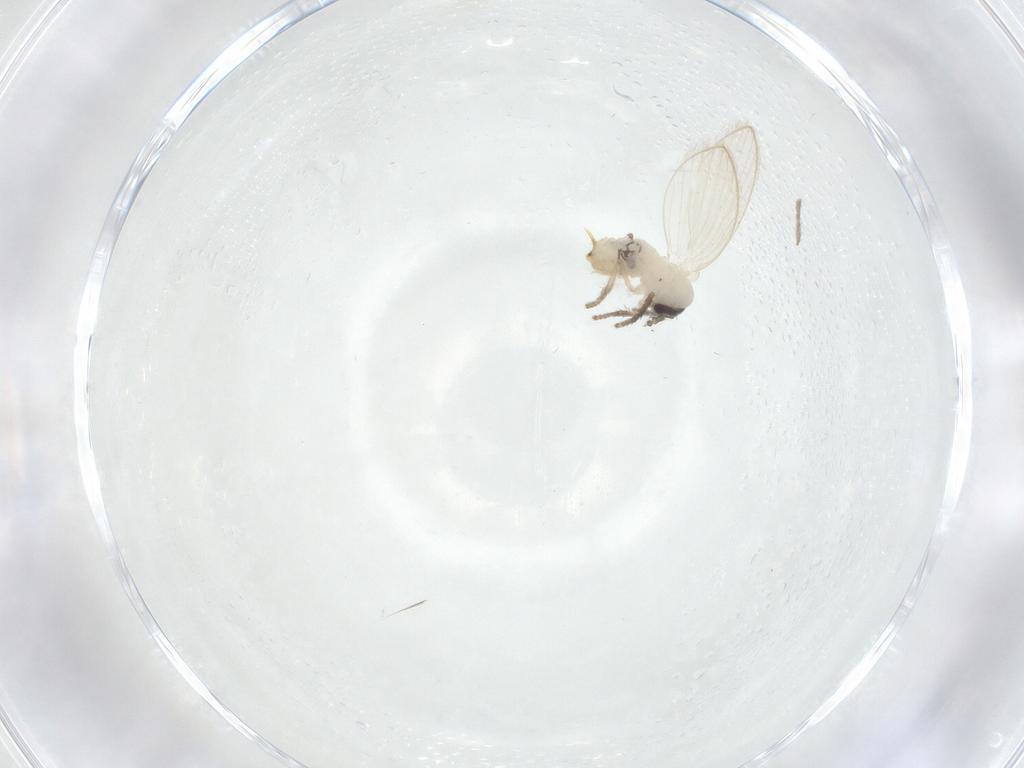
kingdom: Animalia
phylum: Arthropoda
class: Insecta
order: Diptera
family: Psychodidae
